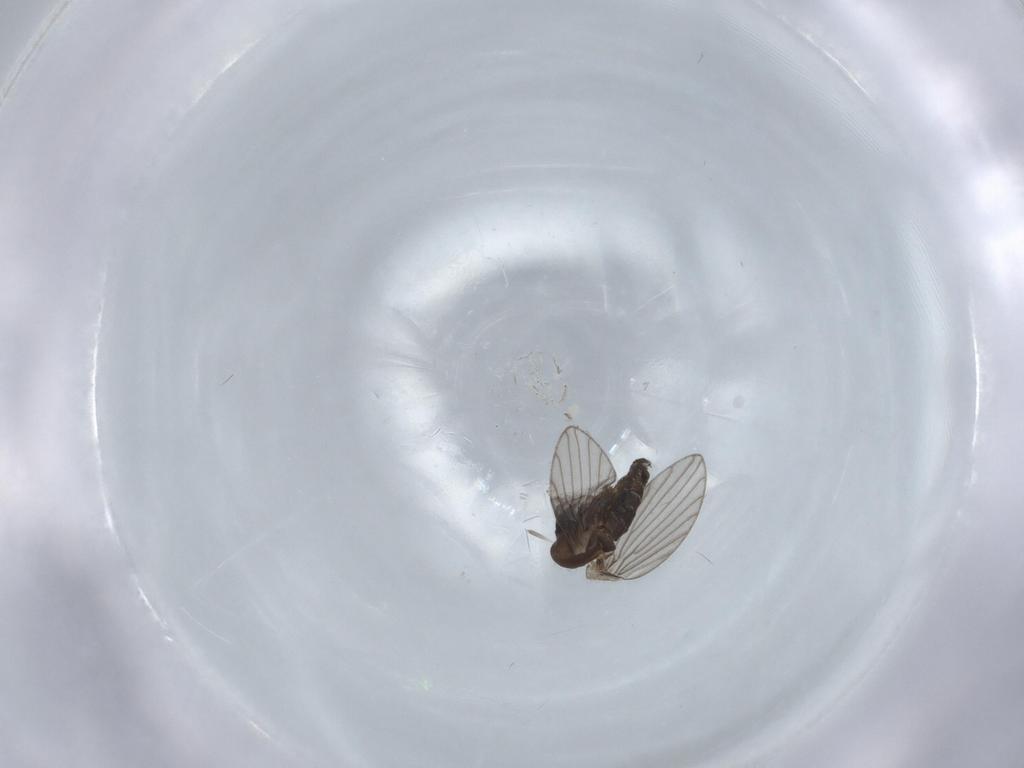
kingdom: Animalia
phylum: Arthropoda
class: Insecta
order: Diptera
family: Psychodidae
